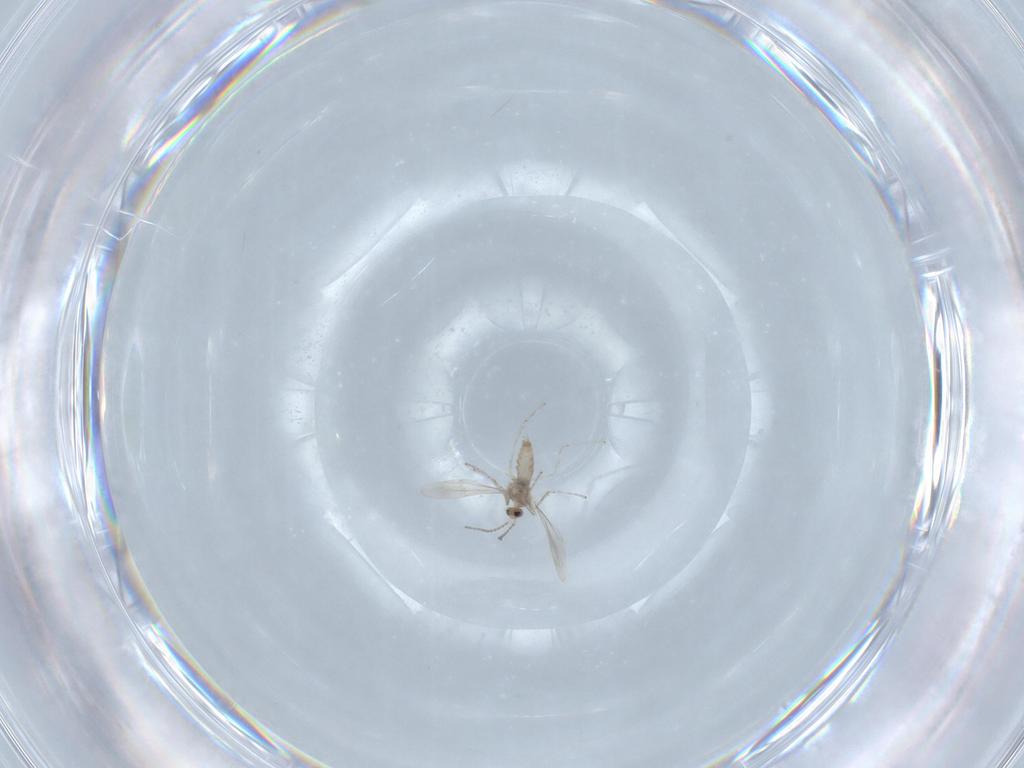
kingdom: Animalia
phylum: Arthropoda
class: Insecta
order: Diptera
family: Cecidomyiidae
